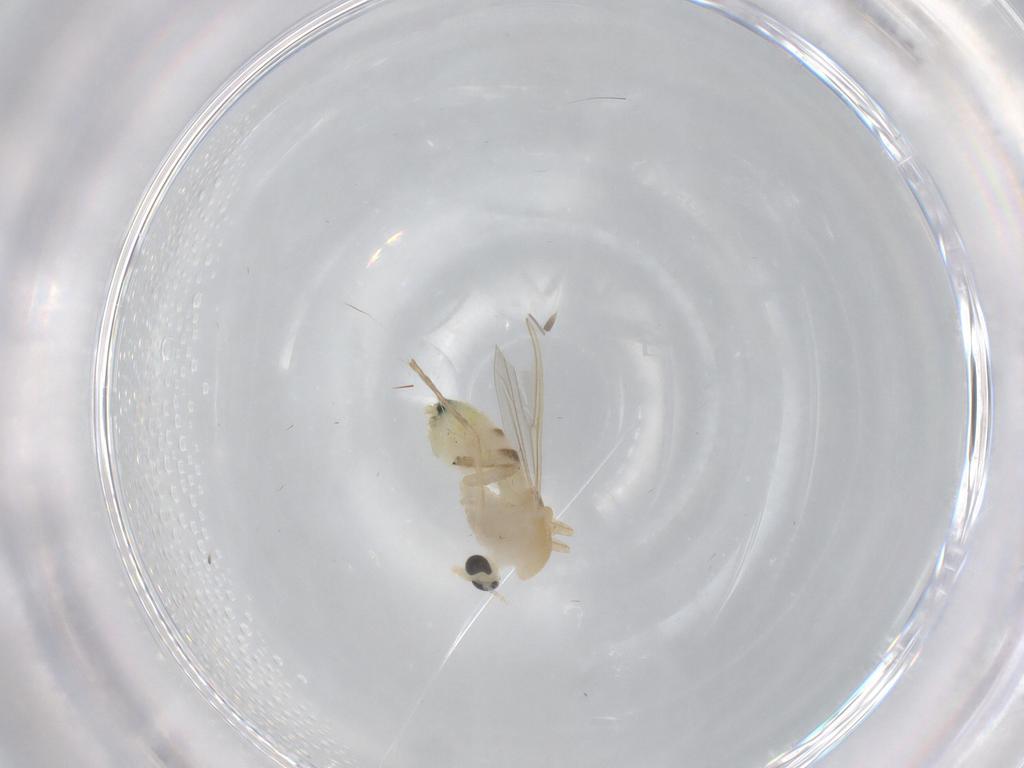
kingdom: Animalia
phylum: Arthropoda
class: Insecta
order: Diptera
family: Chironomidae
